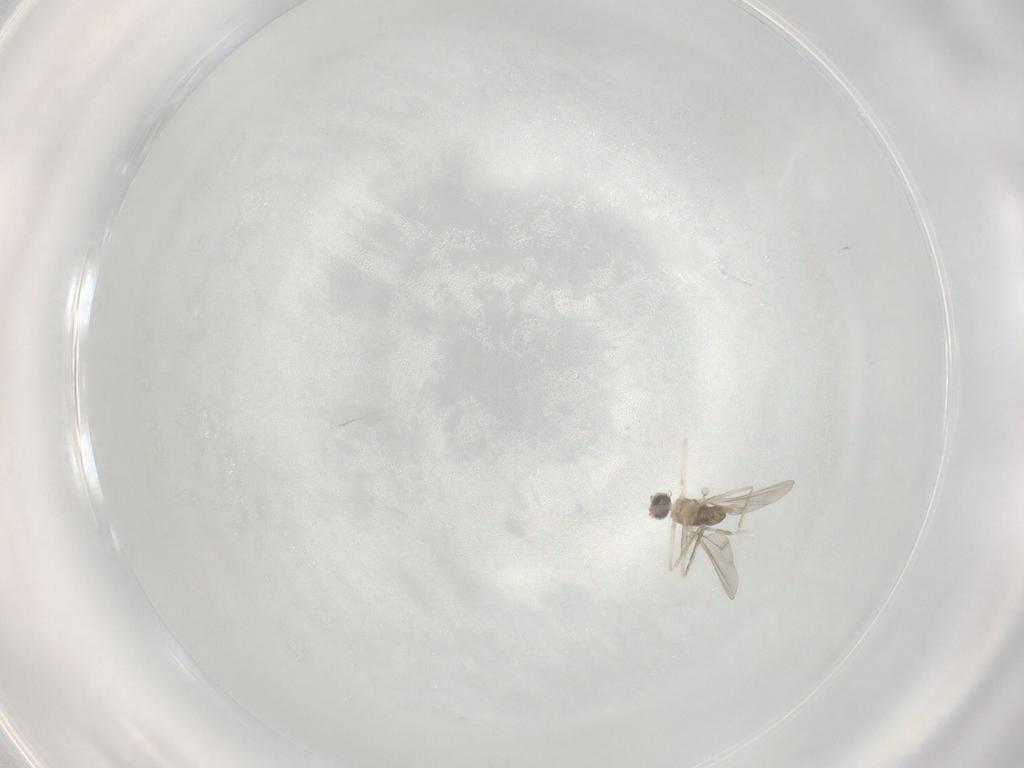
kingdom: Animalia
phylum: Arthropoda
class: Insecta
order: Diptera
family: Cecidomyiidae
